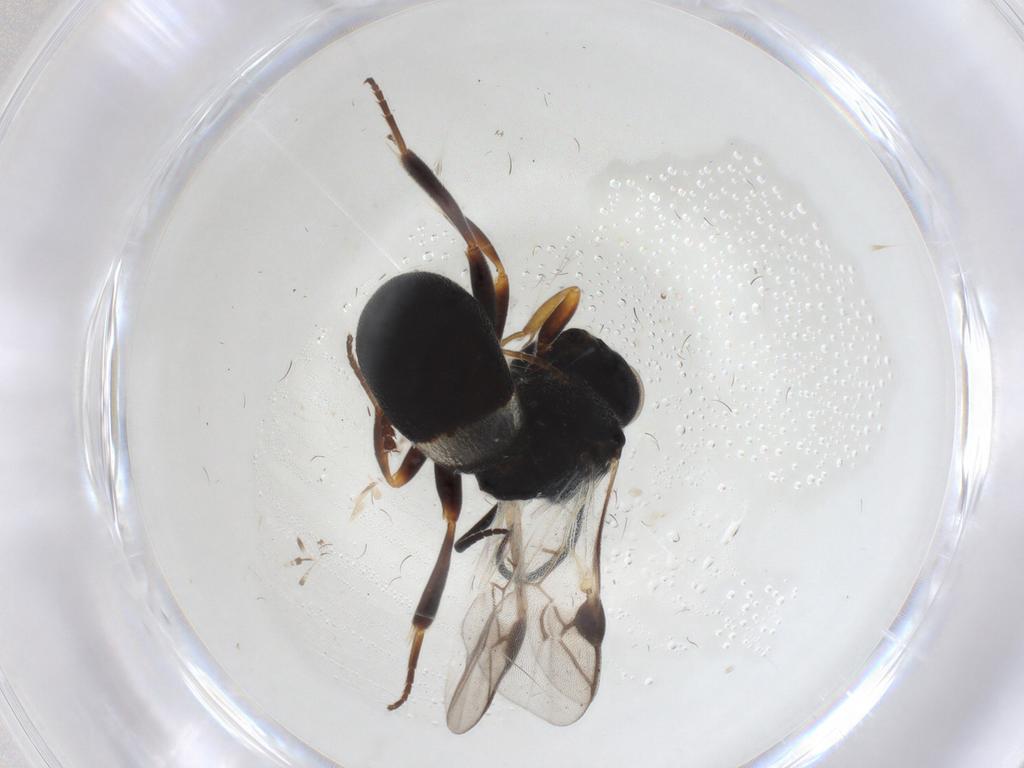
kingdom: Animalia
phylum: Arthropoda
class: Insecta
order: Hymenoptera
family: Braconidae
